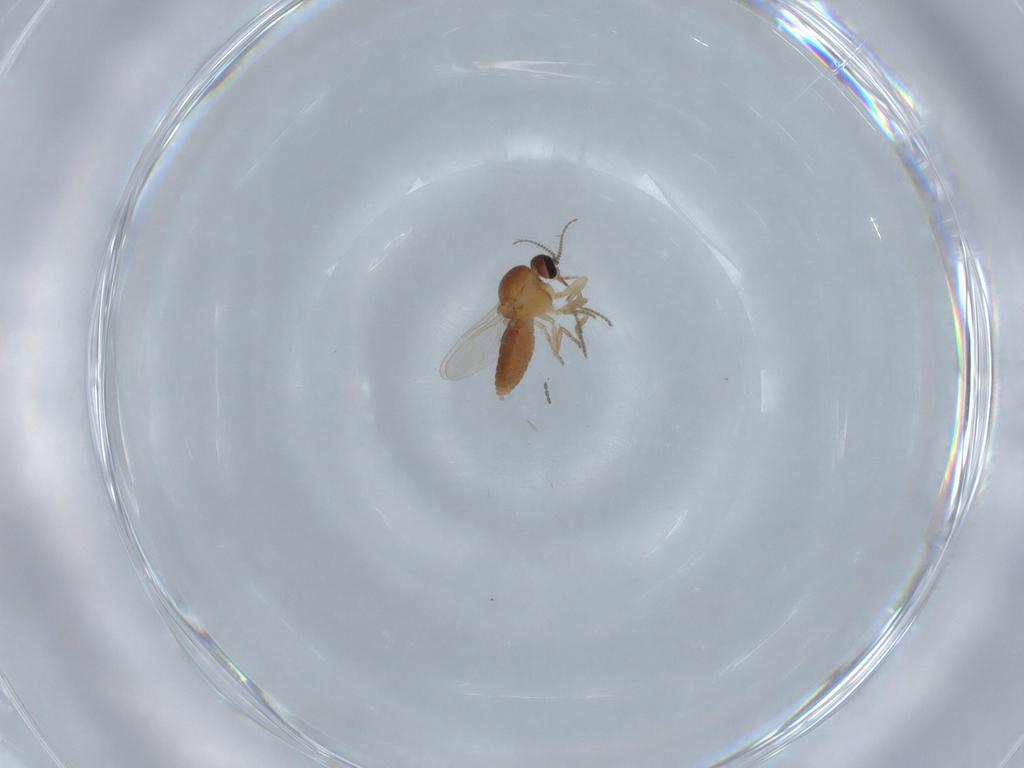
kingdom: Animalia
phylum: Arthropoda
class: Insecta
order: Diptera
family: Ceratopogonidae
